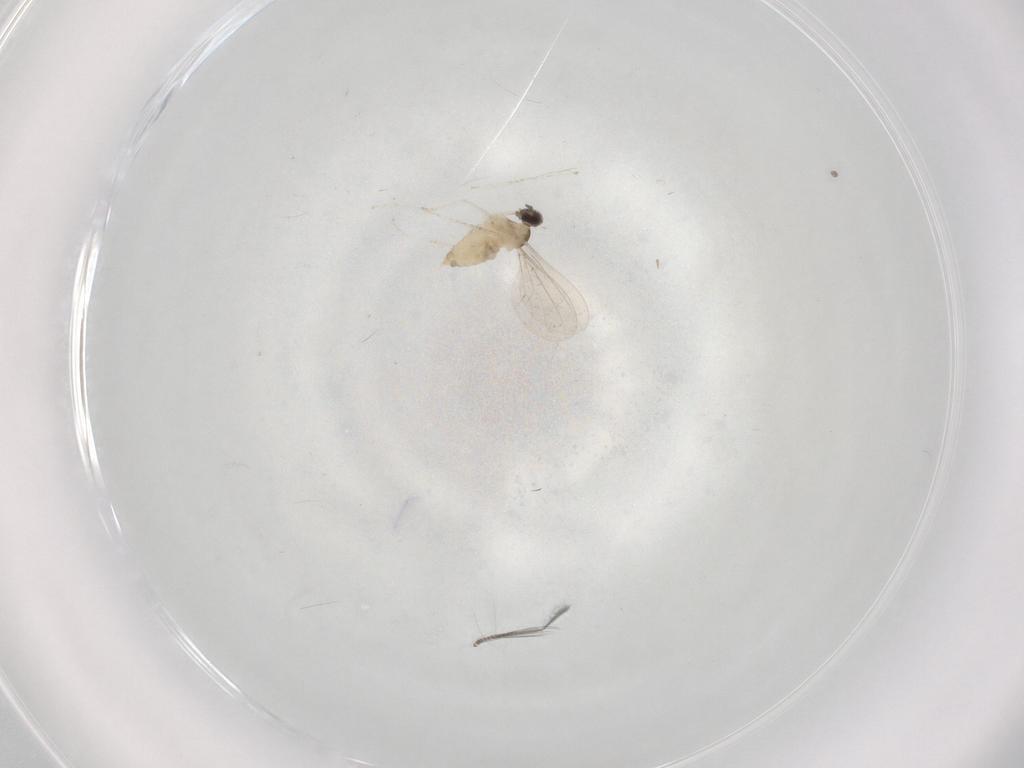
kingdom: Animalia
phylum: Arthropoda
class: Insecta
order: Diptera
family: Cecidomyiidae
